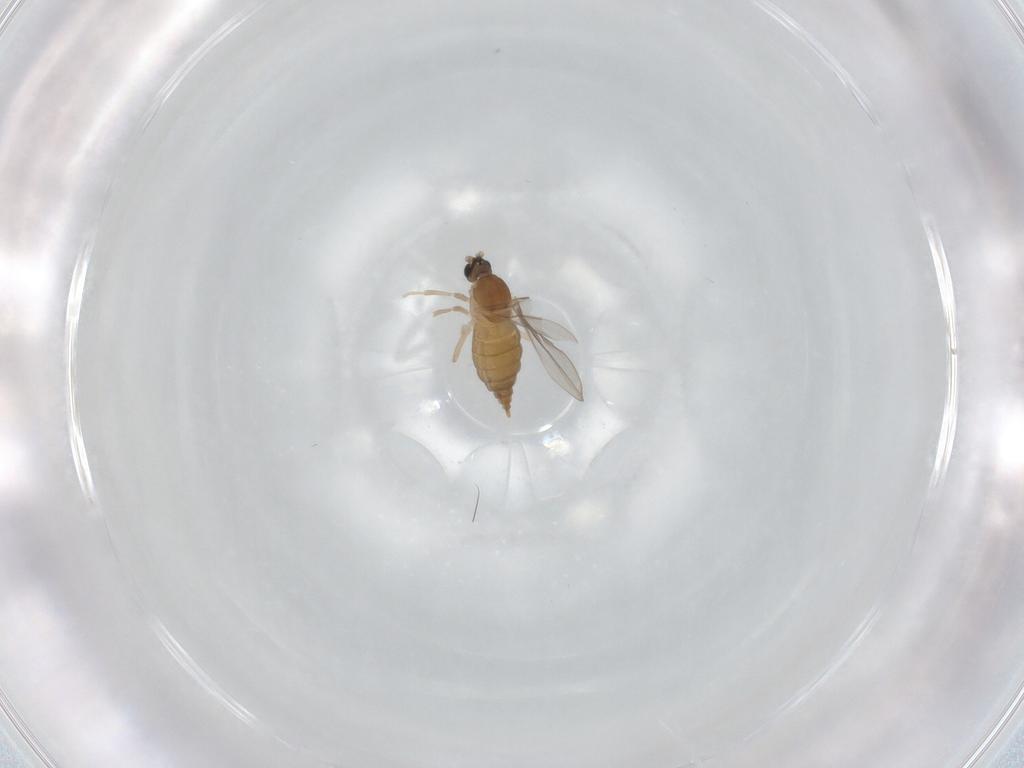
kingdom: Animalia
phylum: Arthropoda
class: Insecta
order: Diptera
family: Cecidomyiidae
